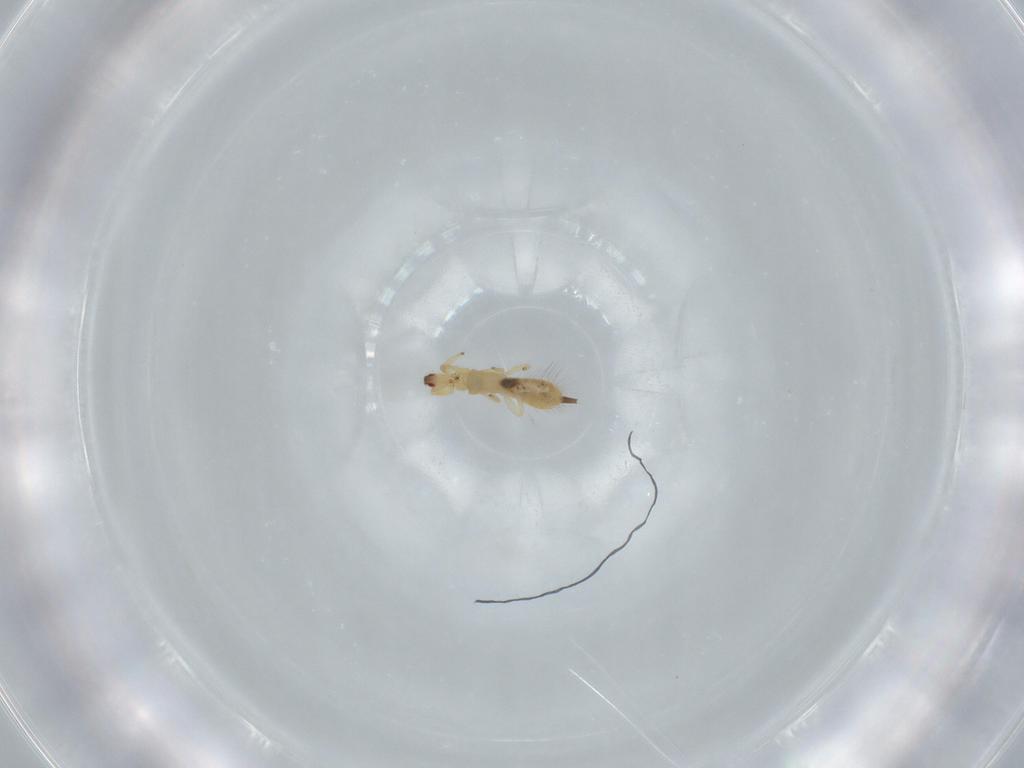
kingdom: Animalia
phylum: Arthropoda
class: Insecta
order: Thysanoptera
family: Phlaeothripidae
